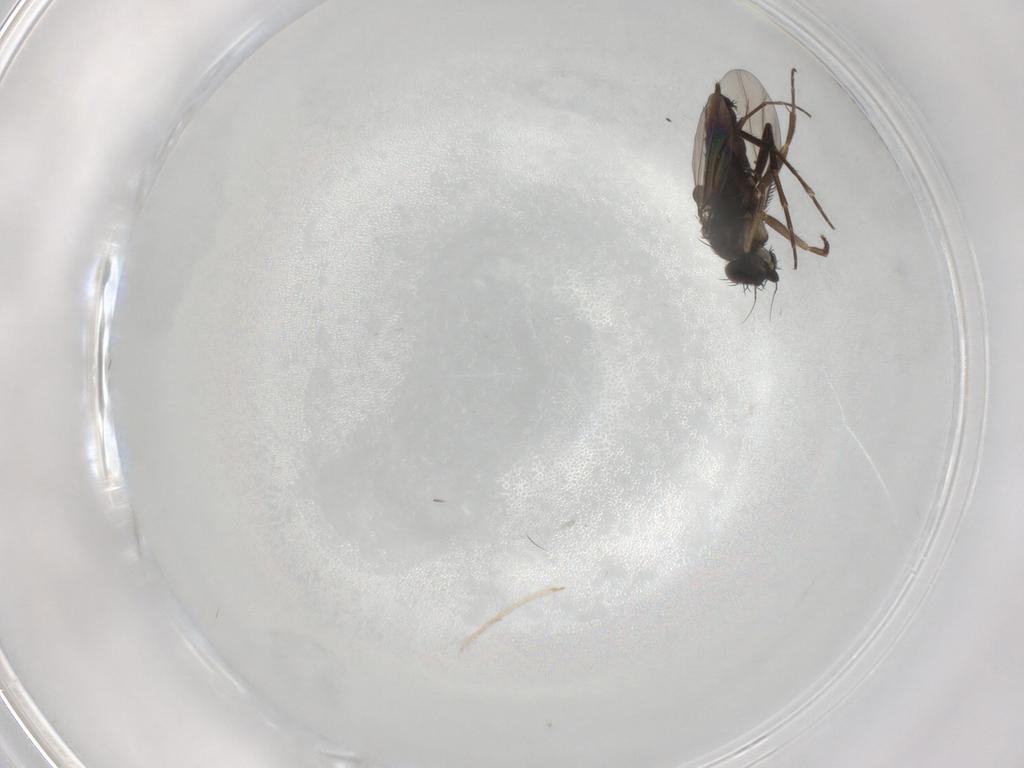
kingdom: Animalia
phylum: Arthropoda
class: Insecta
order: Diptera
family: Phoridae
